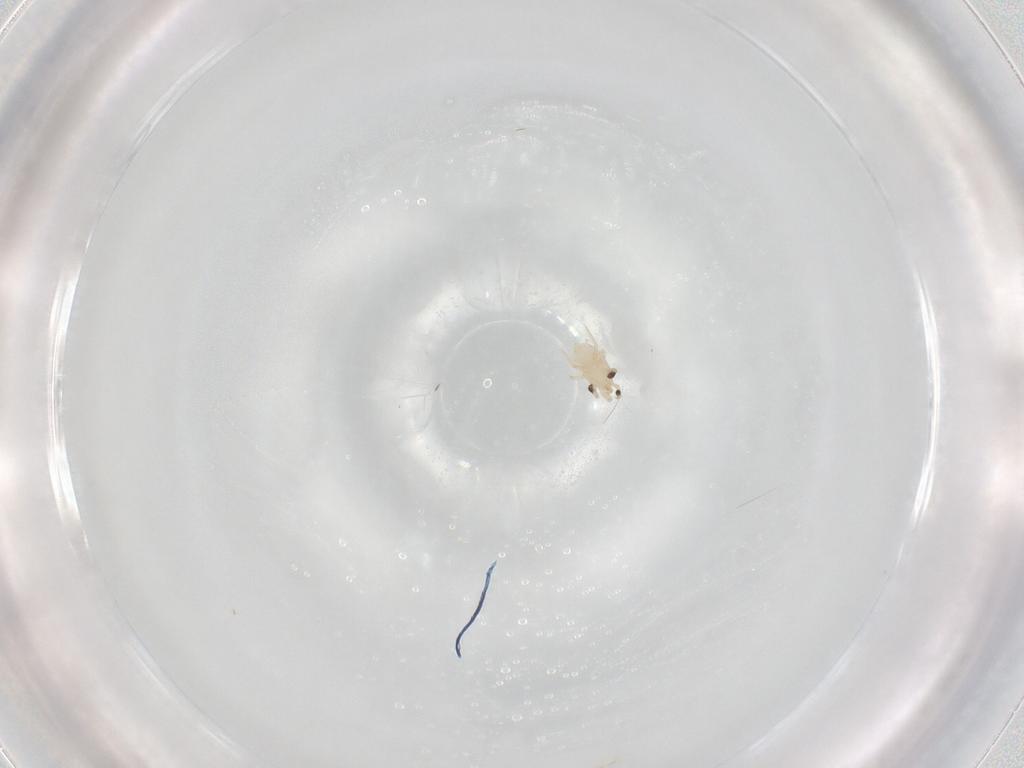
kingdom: Animalia
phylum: Arthropoda
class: Arachnida
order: Mesostigmata
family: Melicharidae
